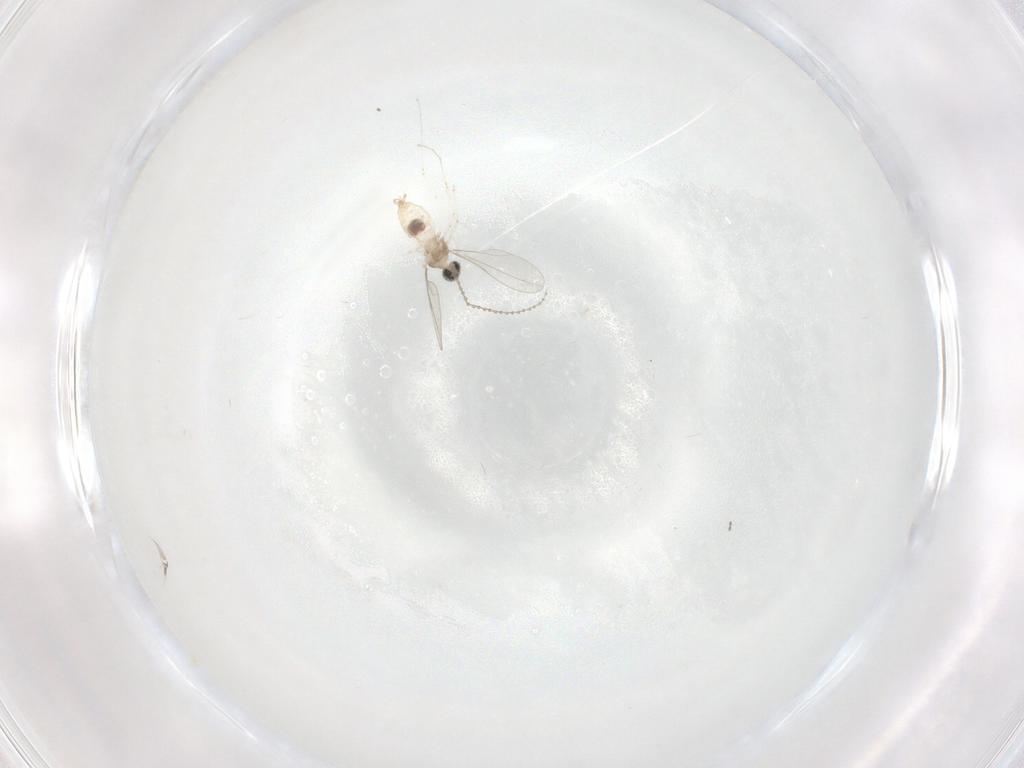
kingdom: Animalia
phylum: Arthropoda
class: Insecta
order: Diptera
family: Cecidomyiidae
